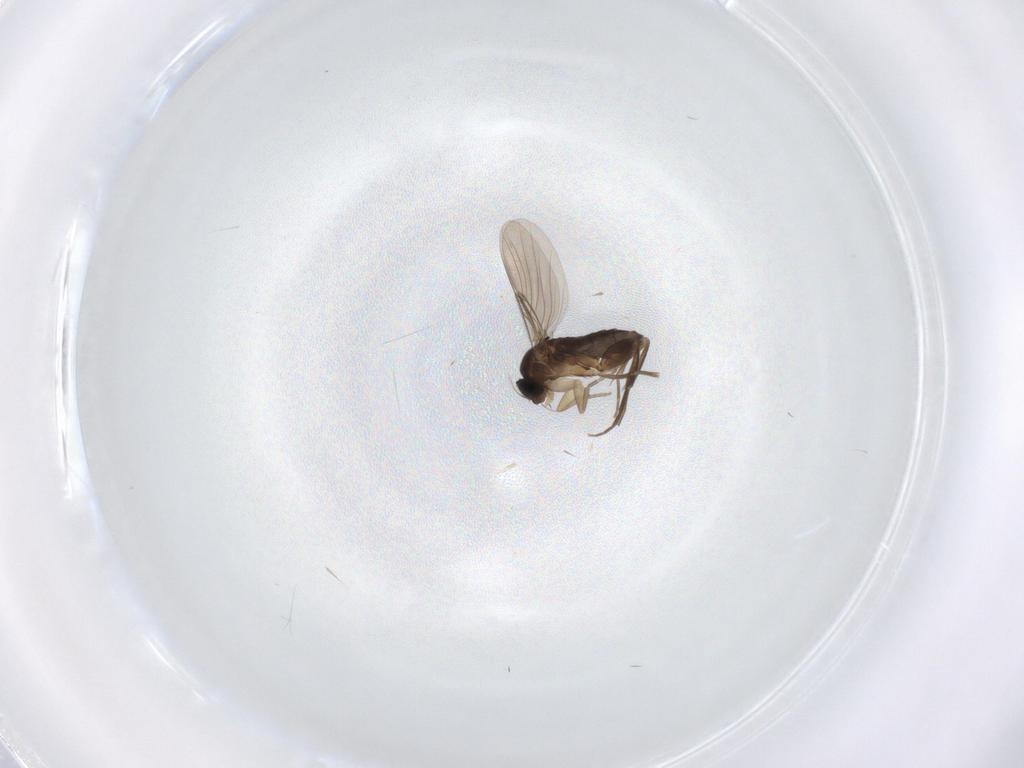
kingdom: Animalia
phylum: Arthropoda
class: Insecta
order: Diptera
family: Phoridae
